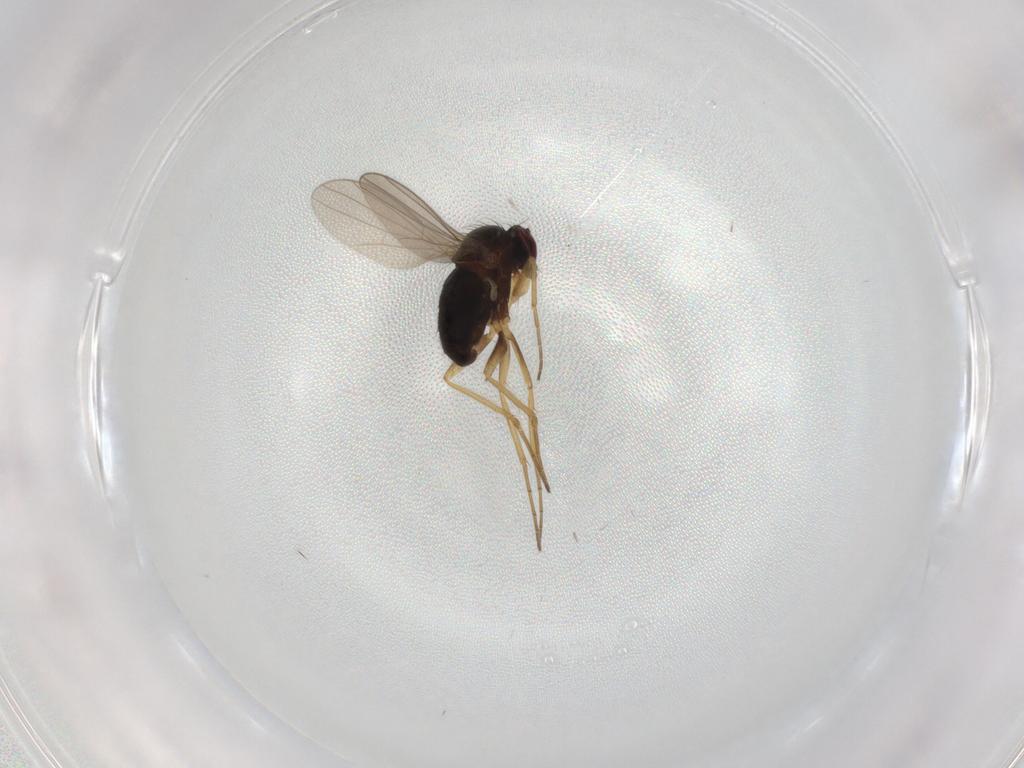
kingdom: Animalia
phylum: Arthropoda
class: Insecta
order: Diptera
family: Dolichopodidae
